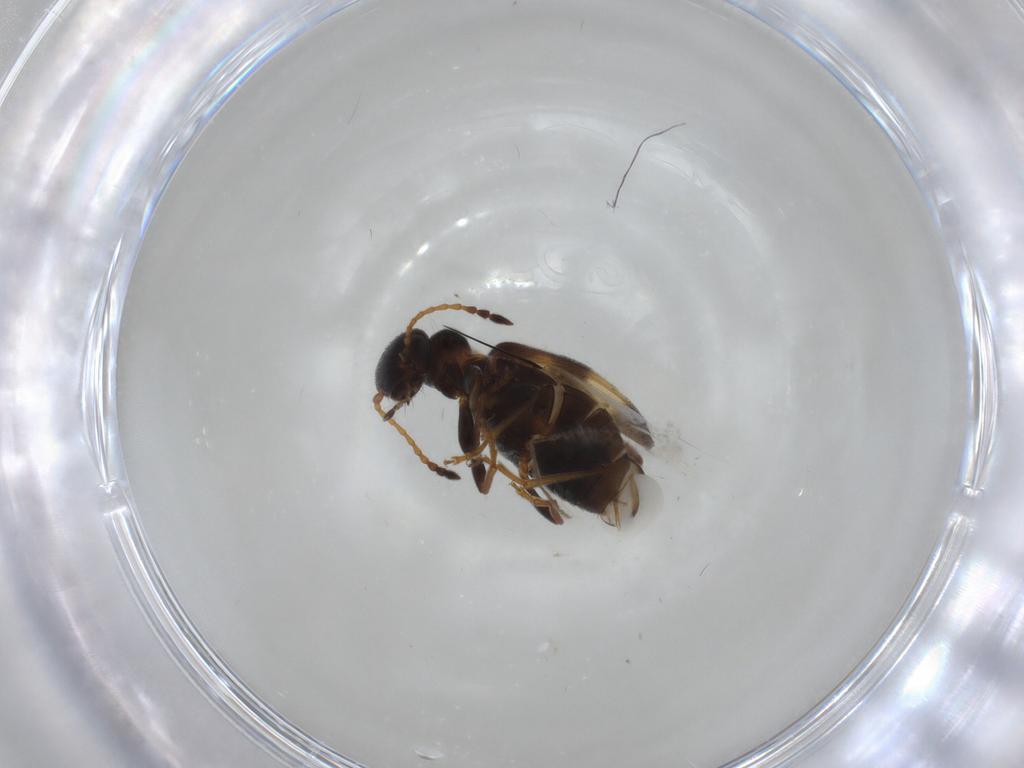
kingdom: Animalia
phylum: Arthropoda
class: Insecta
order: Coleoptera
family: Anthicidae
